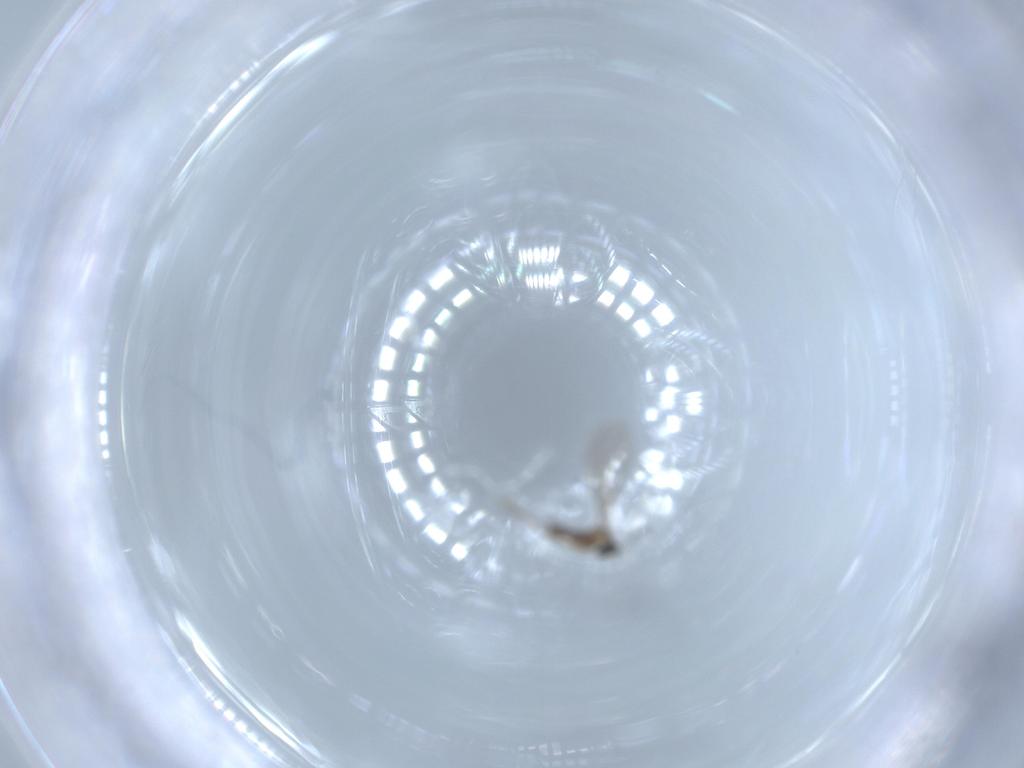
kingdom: Animalia
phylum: Arthropoda
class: Insecta
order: Diptera
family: Cecidomyiidae
